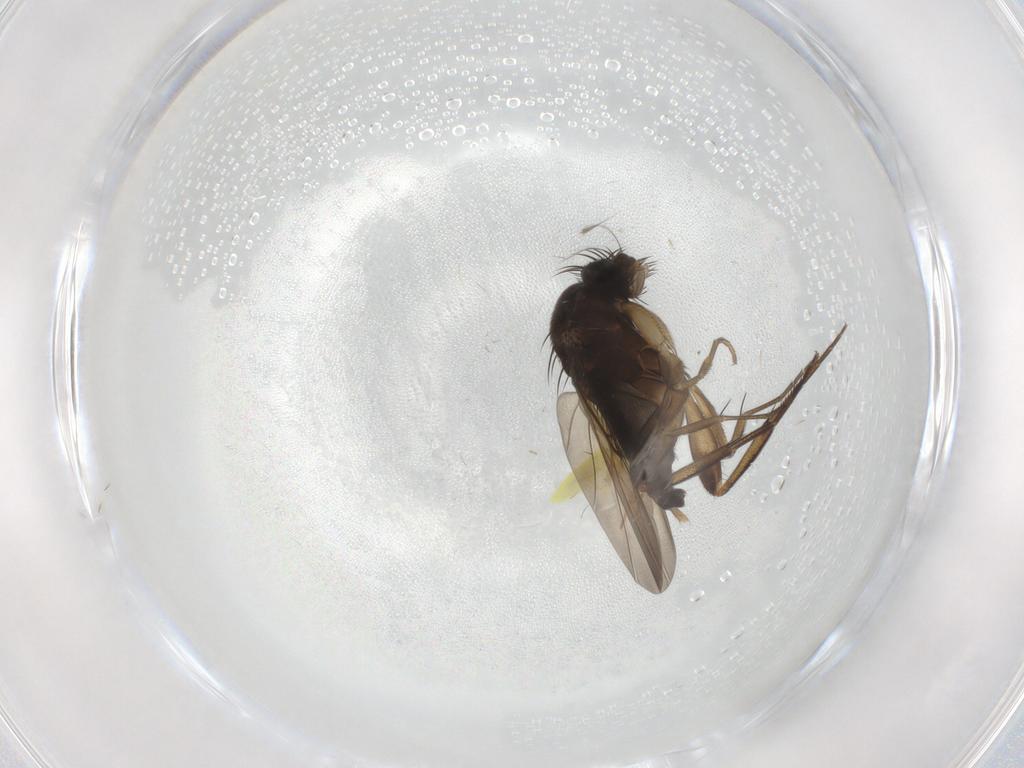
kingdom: Animalia
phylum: Arthropoda
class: Insecta
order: Diptera
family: Phoridae
